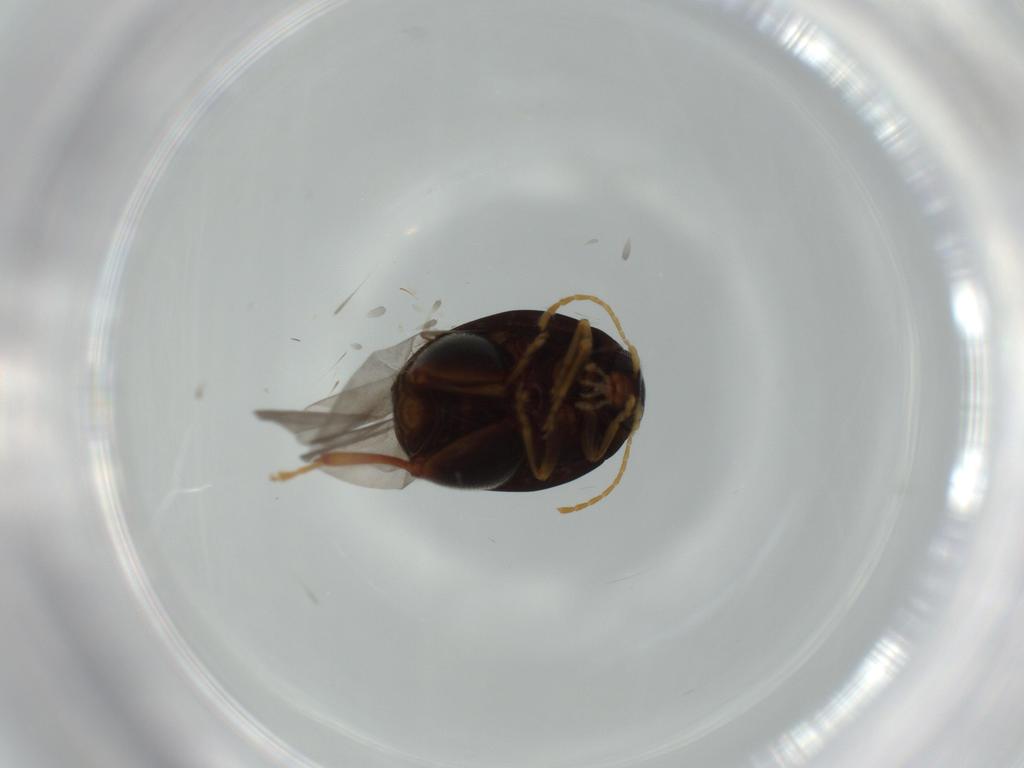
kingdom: Animalia
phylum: Arthropoda
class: Insecta
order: Coleoptera
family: Chrysomelidae
